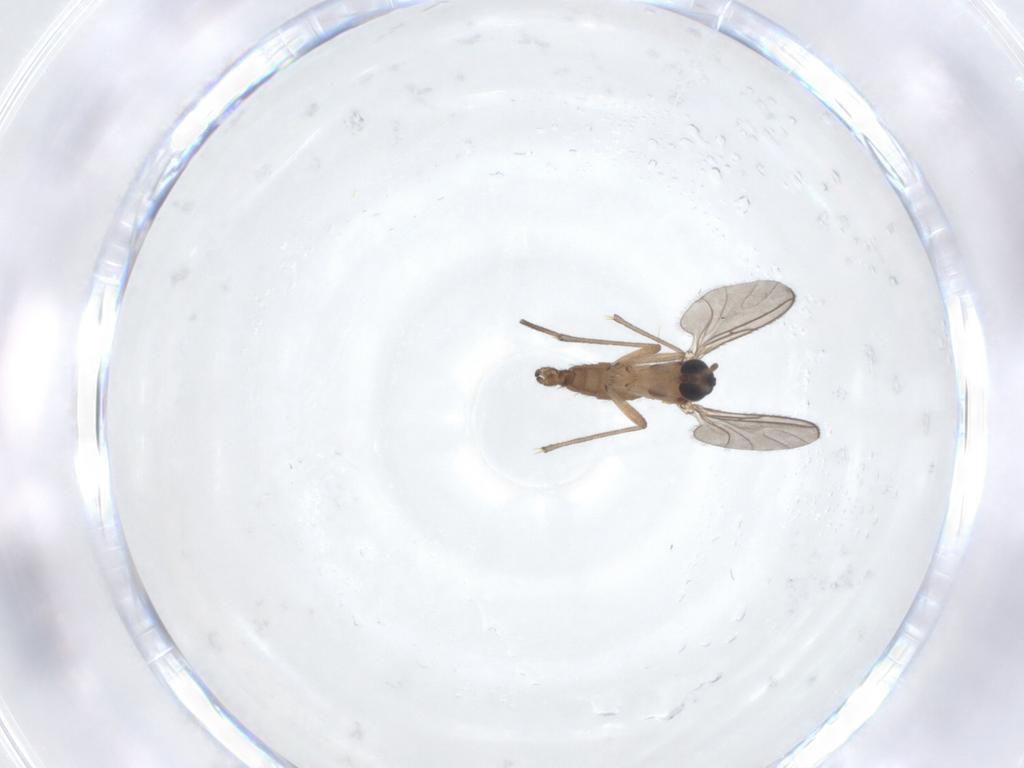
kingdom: Animalia
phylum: Arthropoda
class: Insecta
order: Diptera
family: Sciaridae
